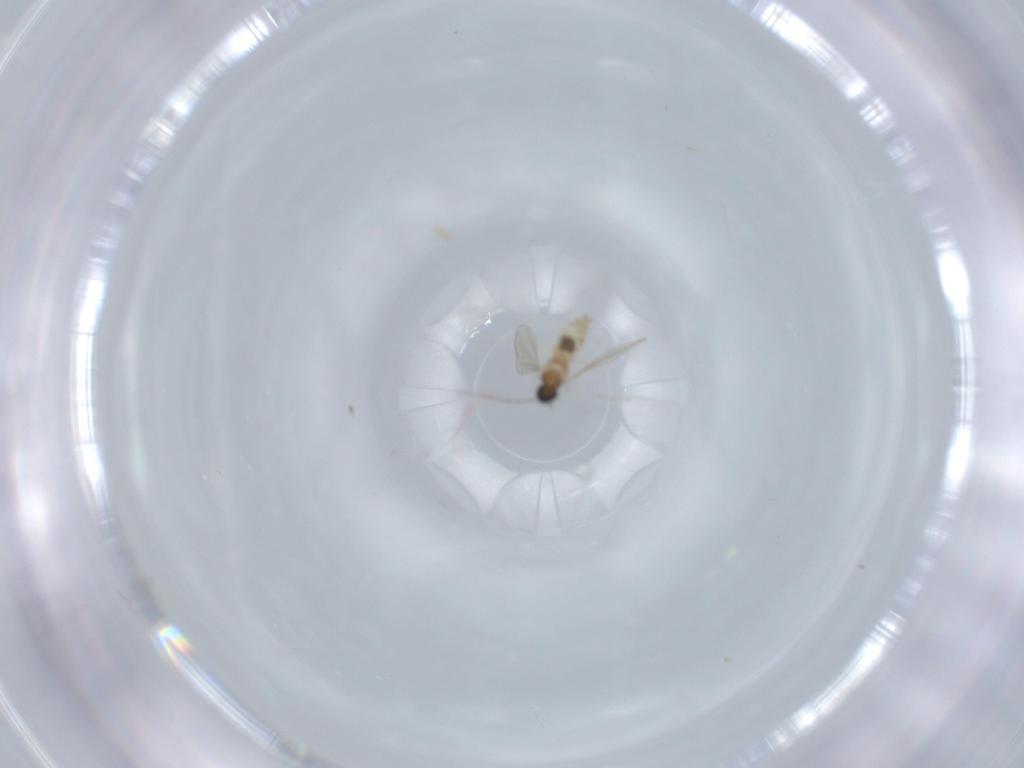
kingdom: Animalia
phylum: Arthropoda
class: Insecta
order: Diptera
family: Cecidomyiidae
